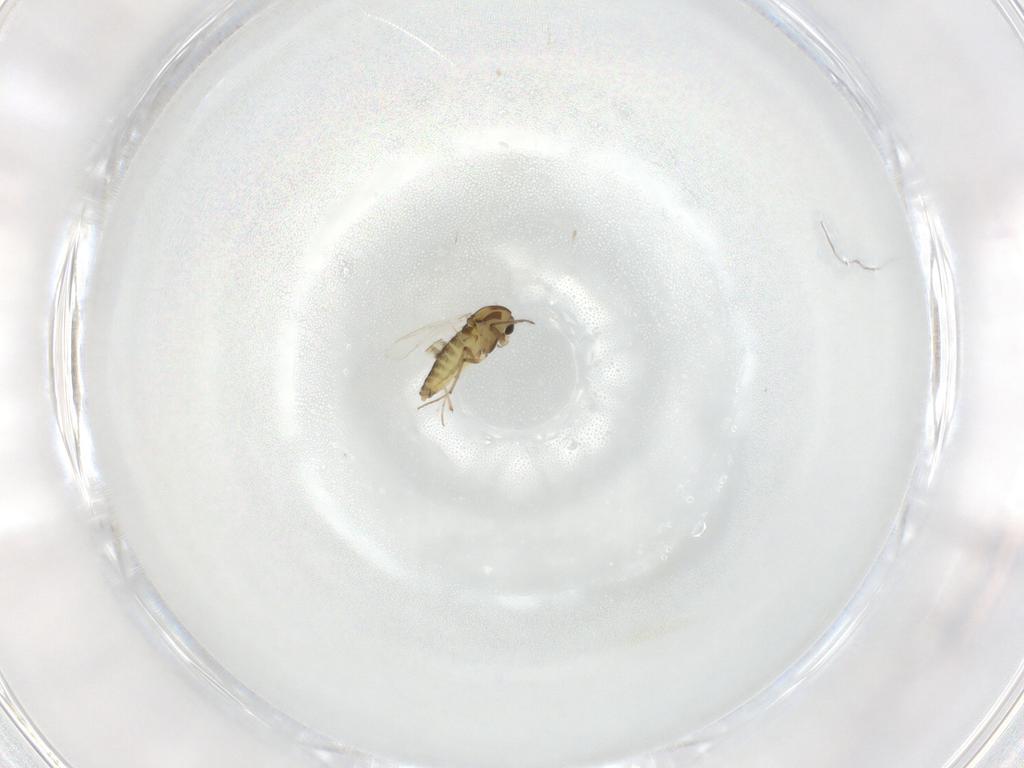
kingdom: Animalia
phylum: Arthropoda
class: Insecta
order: Diptera
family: Chironomidae
